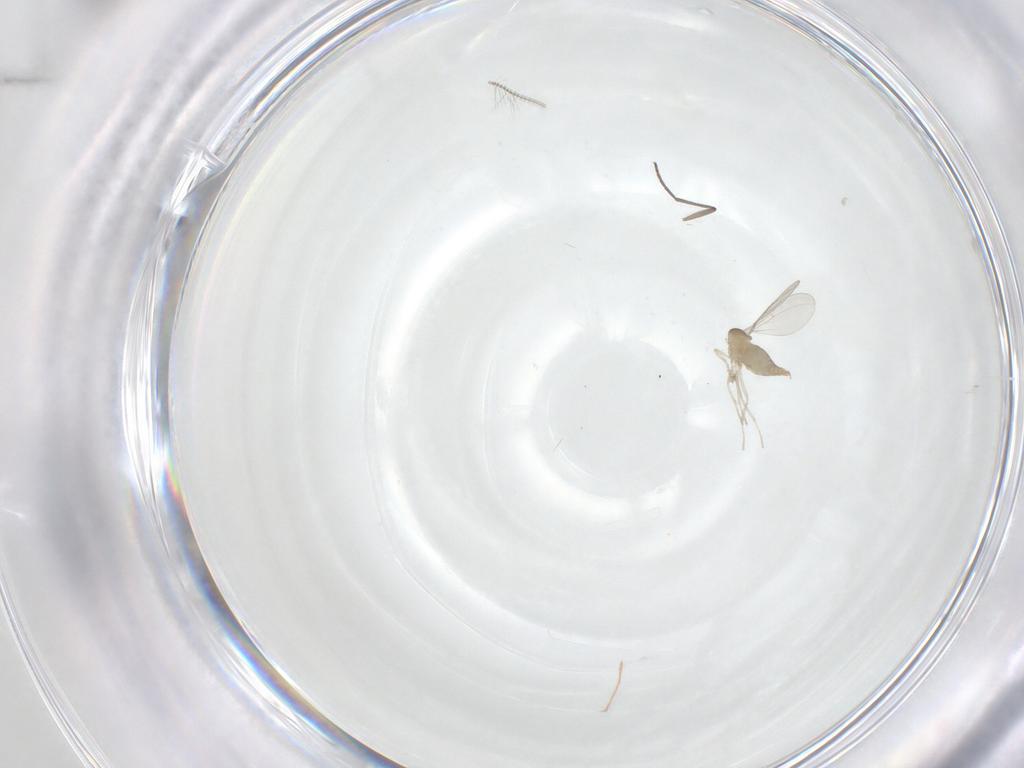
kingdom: Animalia
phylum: Arthropoda
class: Insecta
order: Diptera
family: Cecidomyiidae
